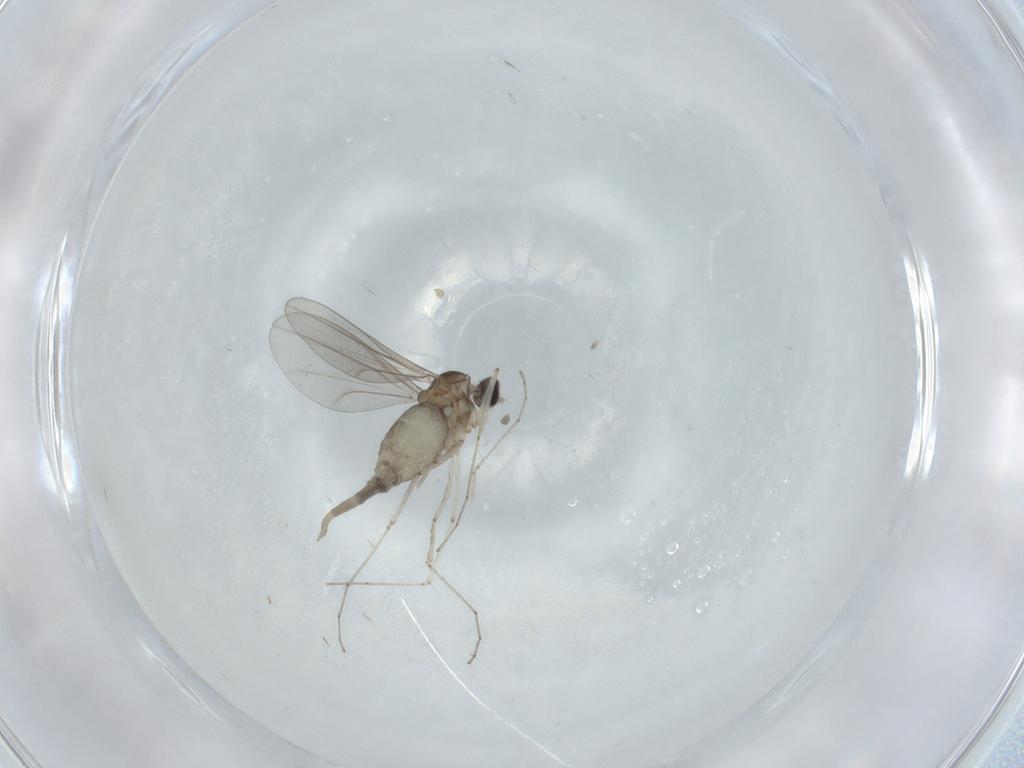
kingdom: Animalia
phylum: Arthropoda
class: Insecta
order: Diptera
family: Cecidomyiidae
